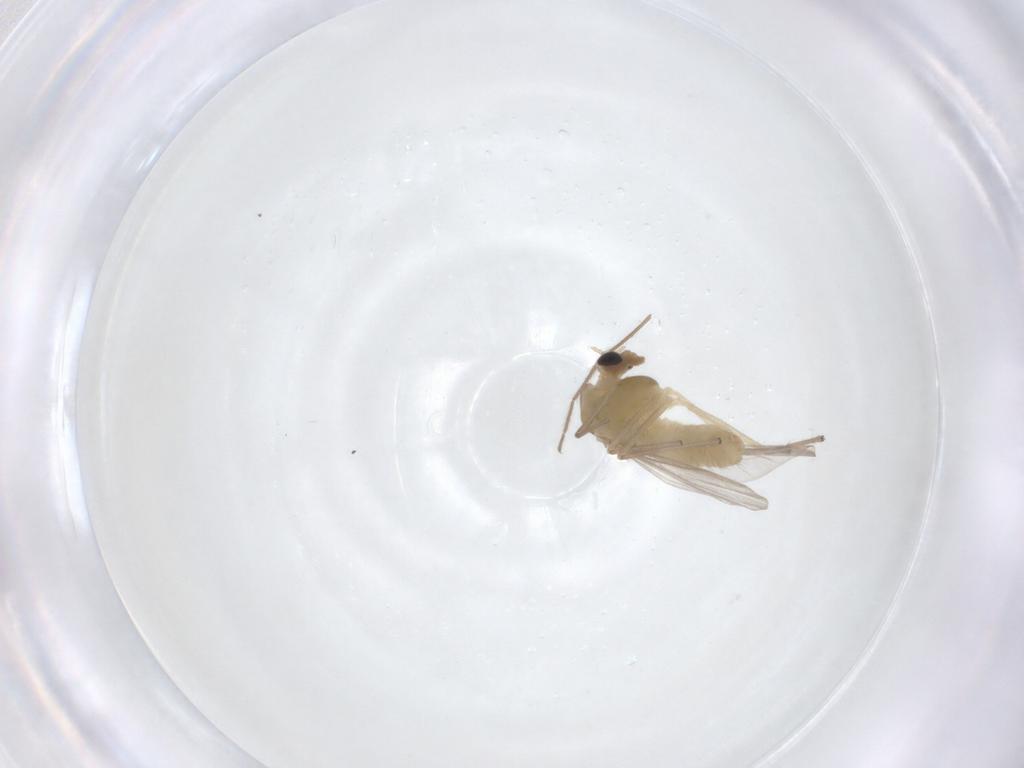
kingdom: Animalia
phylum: Arthropoda
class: Insecta
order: Diptera
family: Chironomidae
